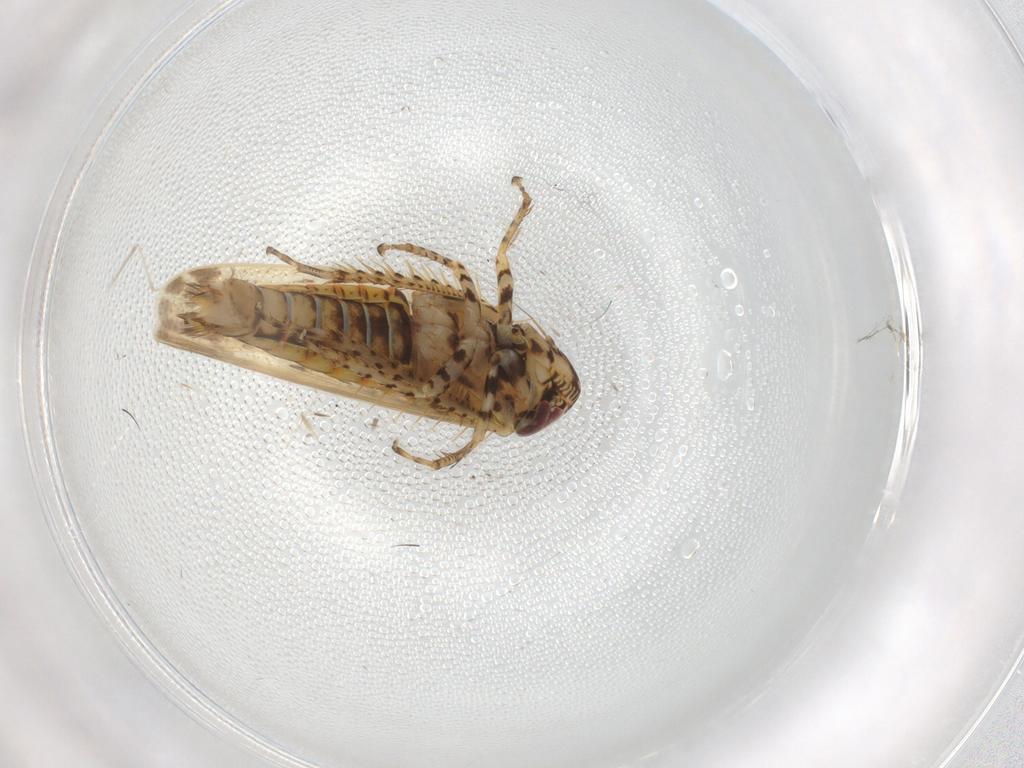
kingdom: Animalia
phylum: Arthropoda
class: Insecta
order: Hemiptera
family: Cicadellidae
